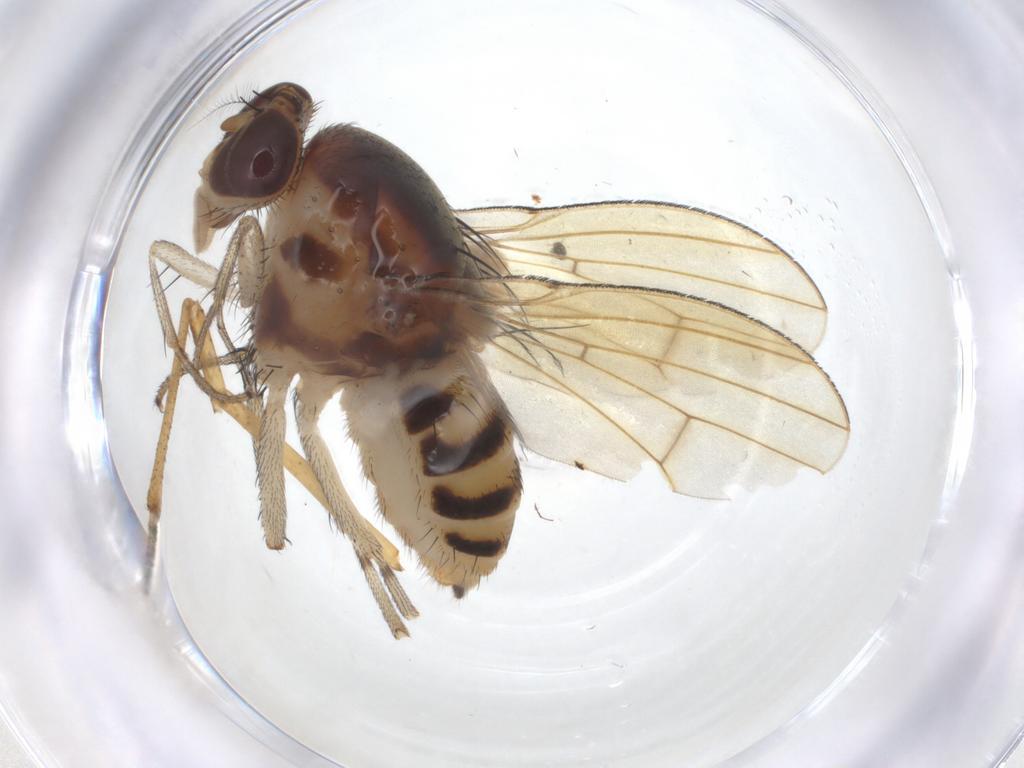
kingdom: Animalia
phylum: Arthropoda
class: Insecta
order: Diptera
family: Chironomidae
